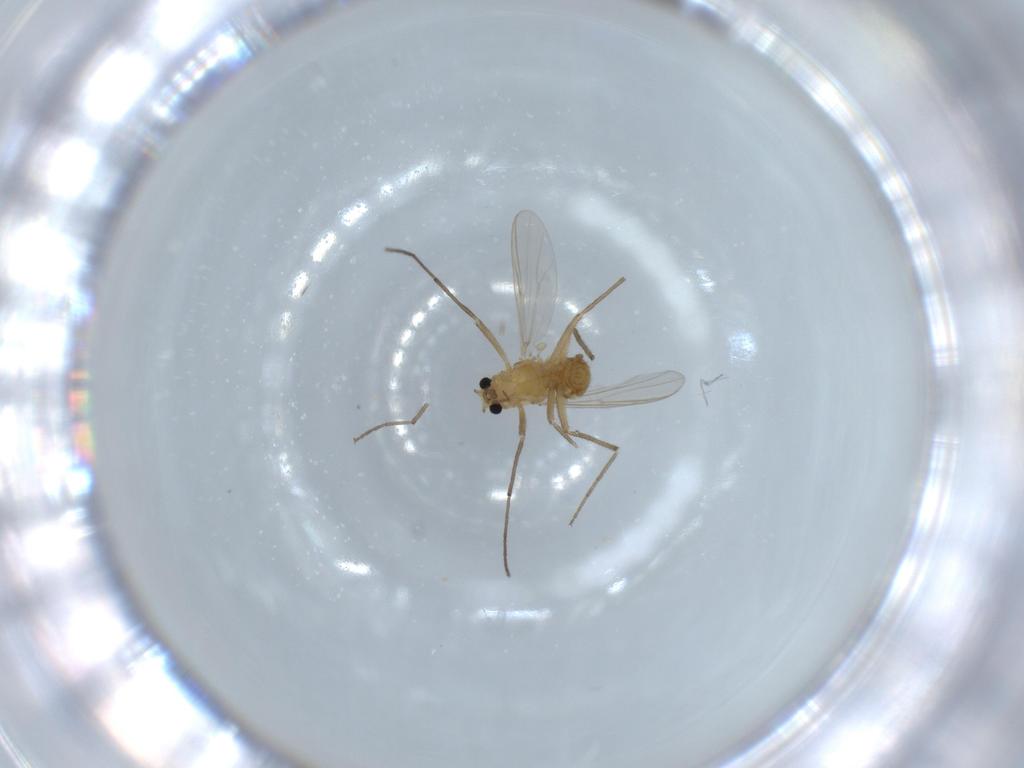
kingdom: Animalia
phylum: Arthropoda
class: Insecta
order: Diptera
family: Chironomidae
